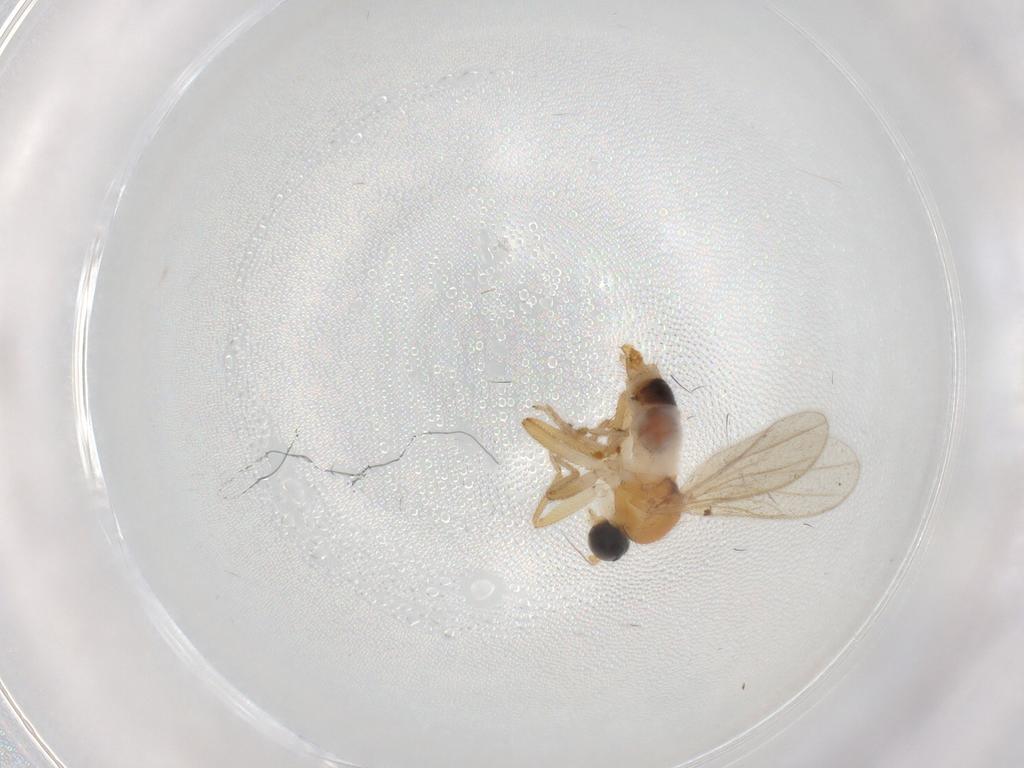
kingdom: Animalia
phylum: Arthropoda
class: Insecta
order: Diptera
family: Hybotidae
